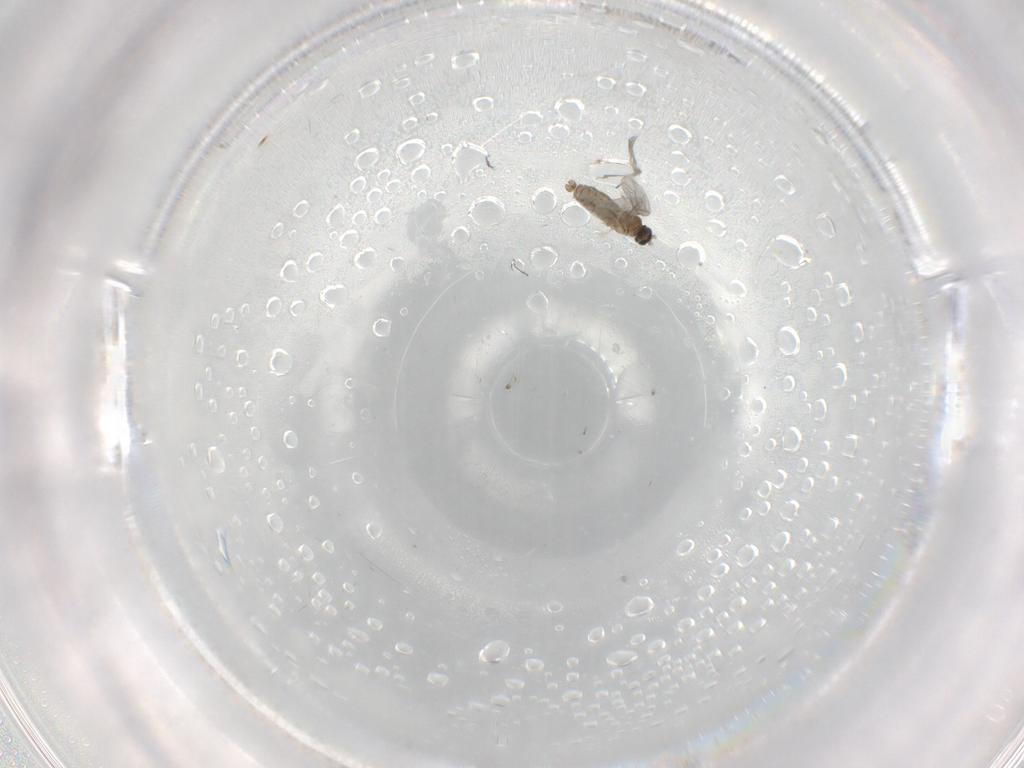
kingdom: Animalia
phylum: Arthropoda
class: Insecta
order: Diptera
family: Cecidomyiidae
